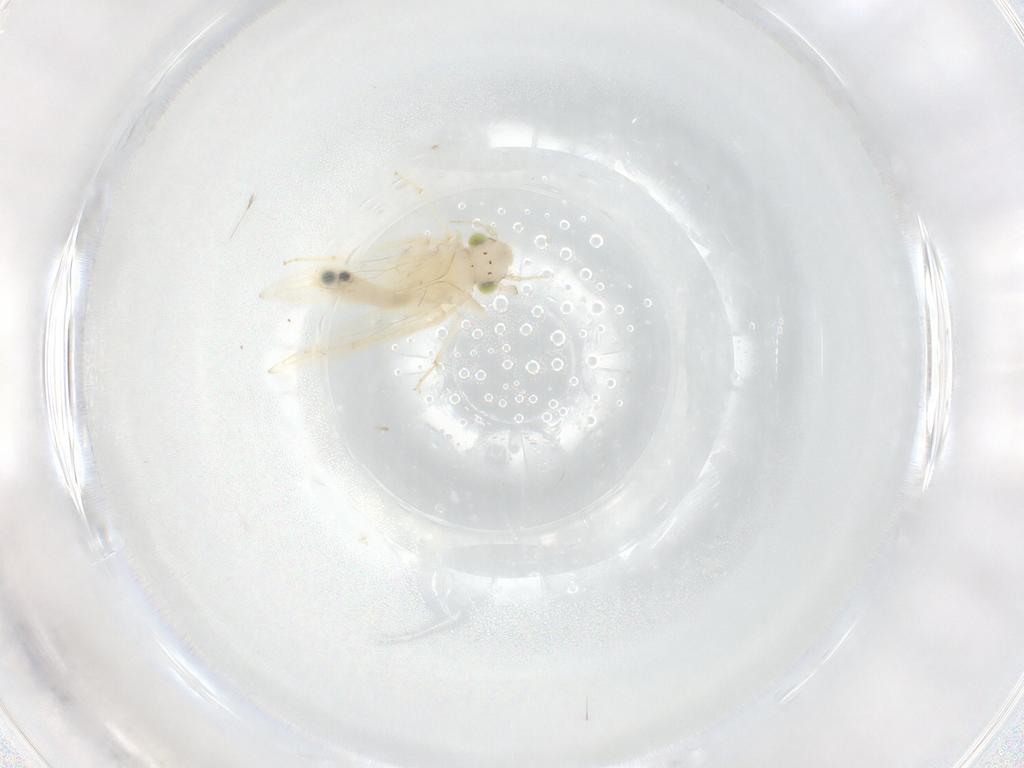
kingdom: Animalia
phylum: Arthropoda
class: Insecta
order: Psocodea
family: Lepidopsocidae
